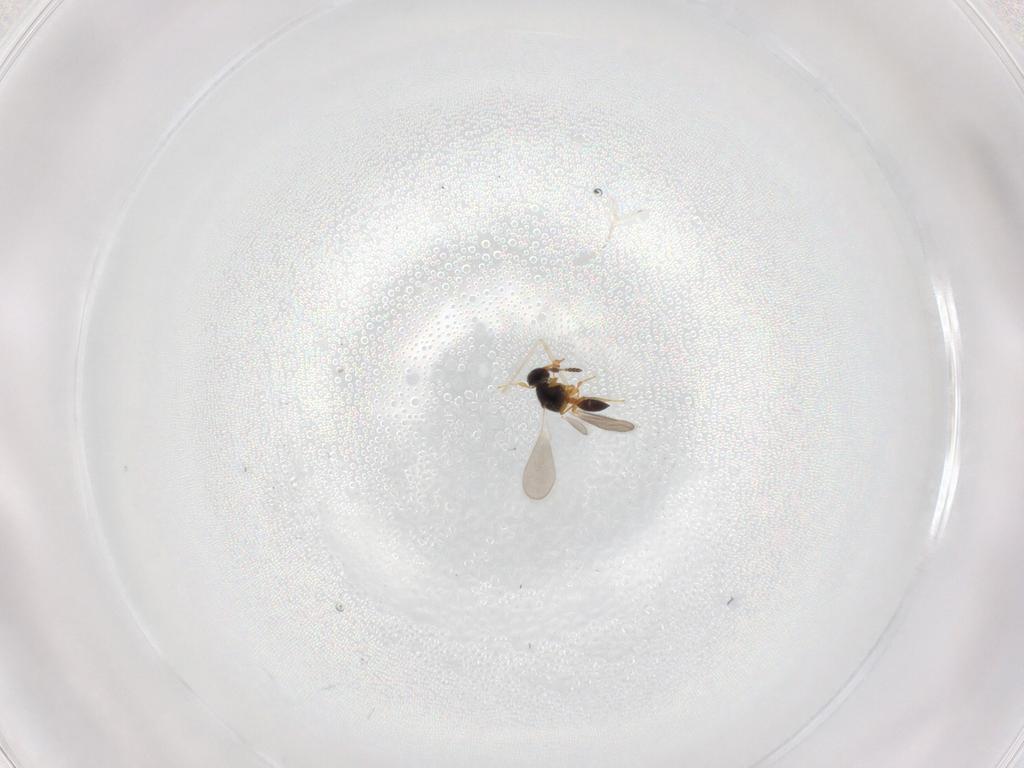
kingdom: Animalia
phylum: Arthropoda
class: Insecta
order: Hymenoptera
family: Platygastridae
